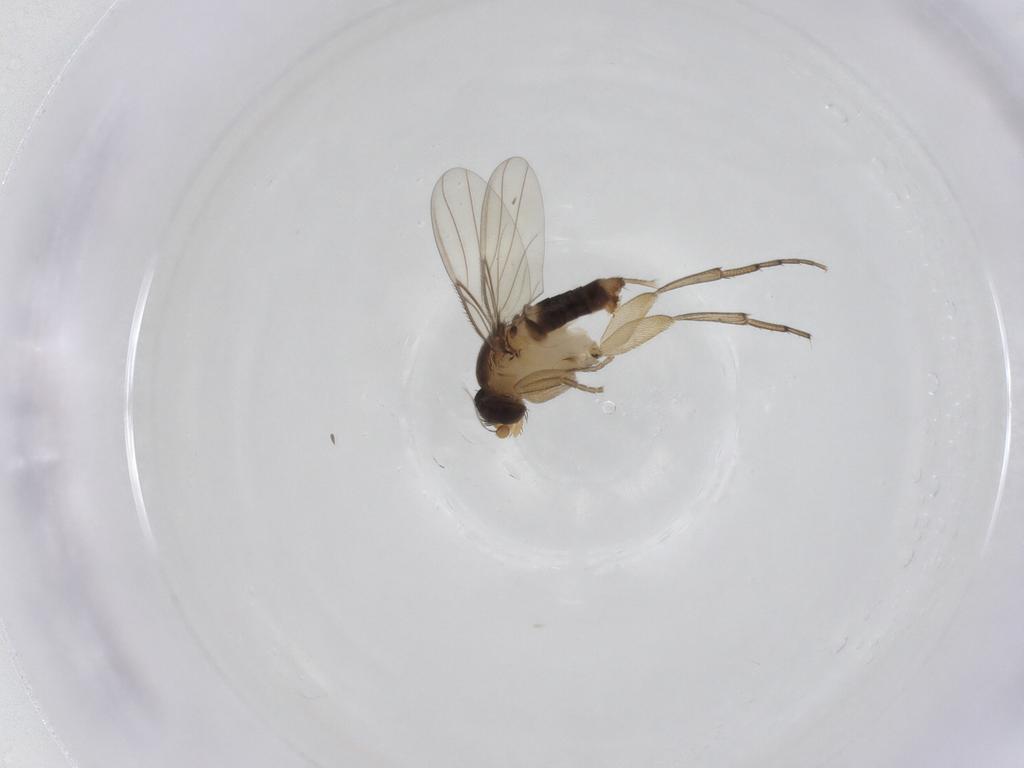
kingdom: Animalia
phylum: Arthropoda
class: Insecta
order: Diptera
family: Phoridae
